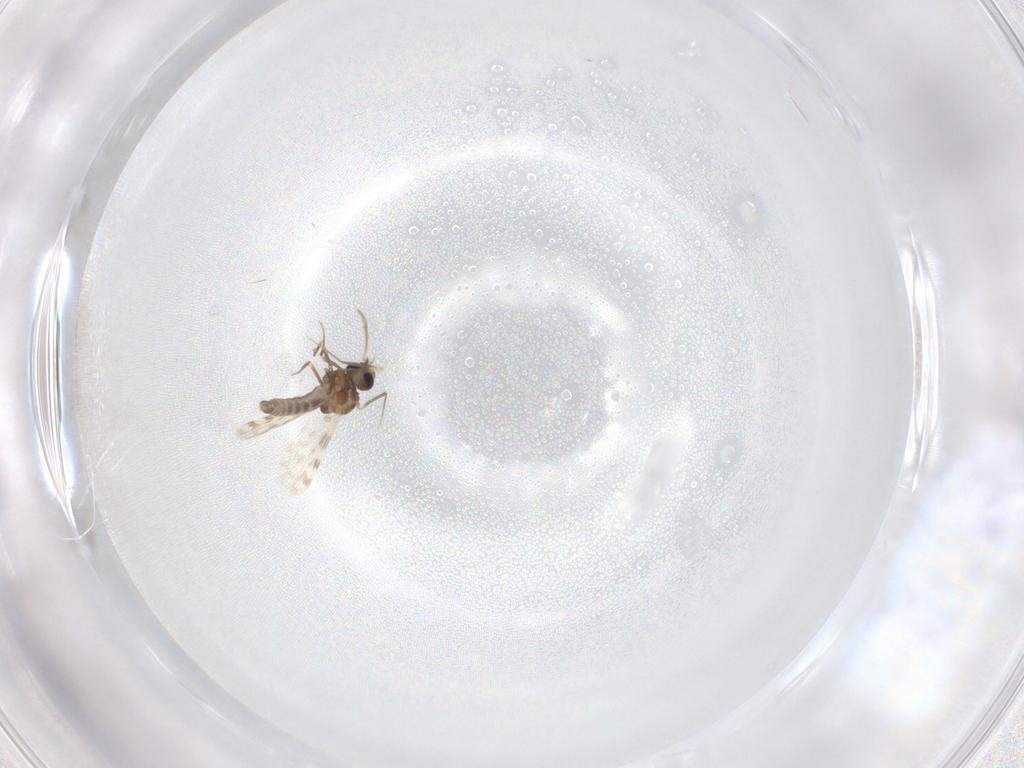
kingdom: Animalia
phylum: Arthropoda
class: Insecta
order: Diptera
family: Ceratopogonidae
